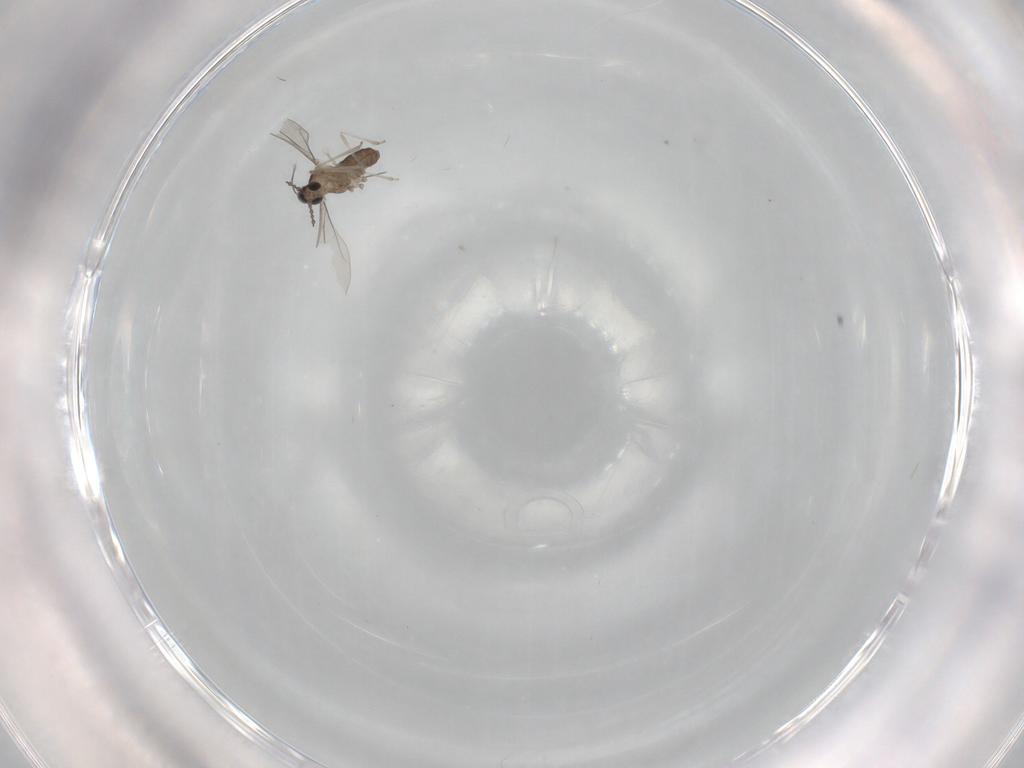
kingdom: Animalia
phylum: Arthropoda
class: Insecta
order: Diptera
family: Cecidomyiidae
